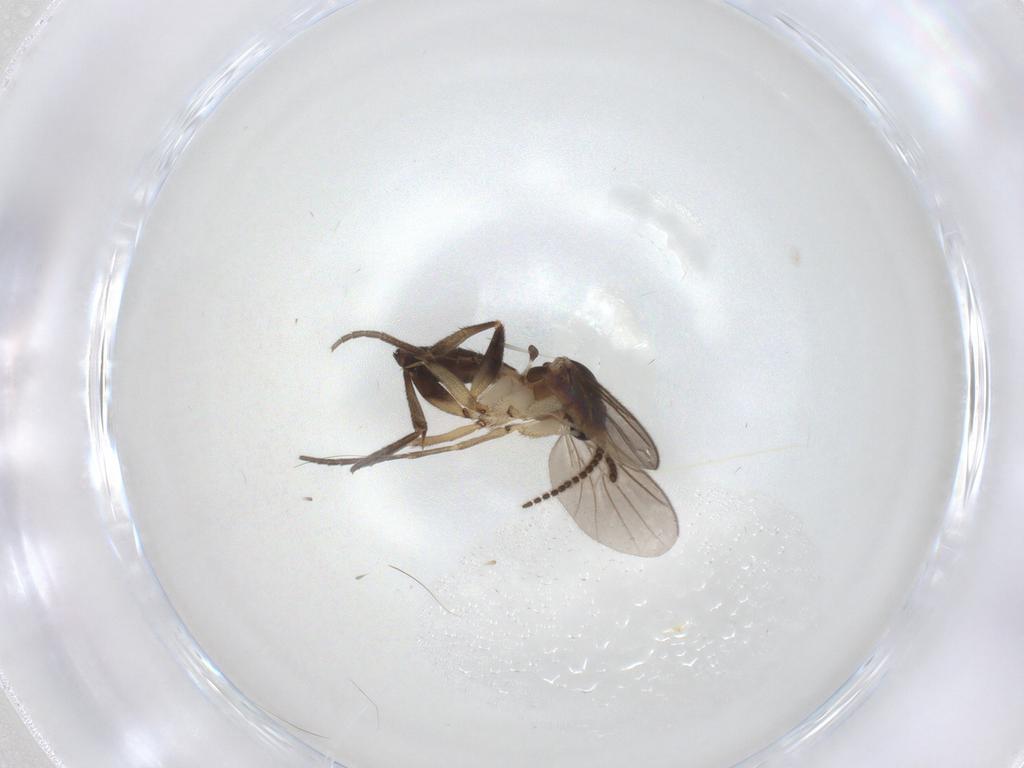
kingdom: Animalia
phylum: Arthropoda
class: Insecta
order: Diptera
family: Mycetophilidae
